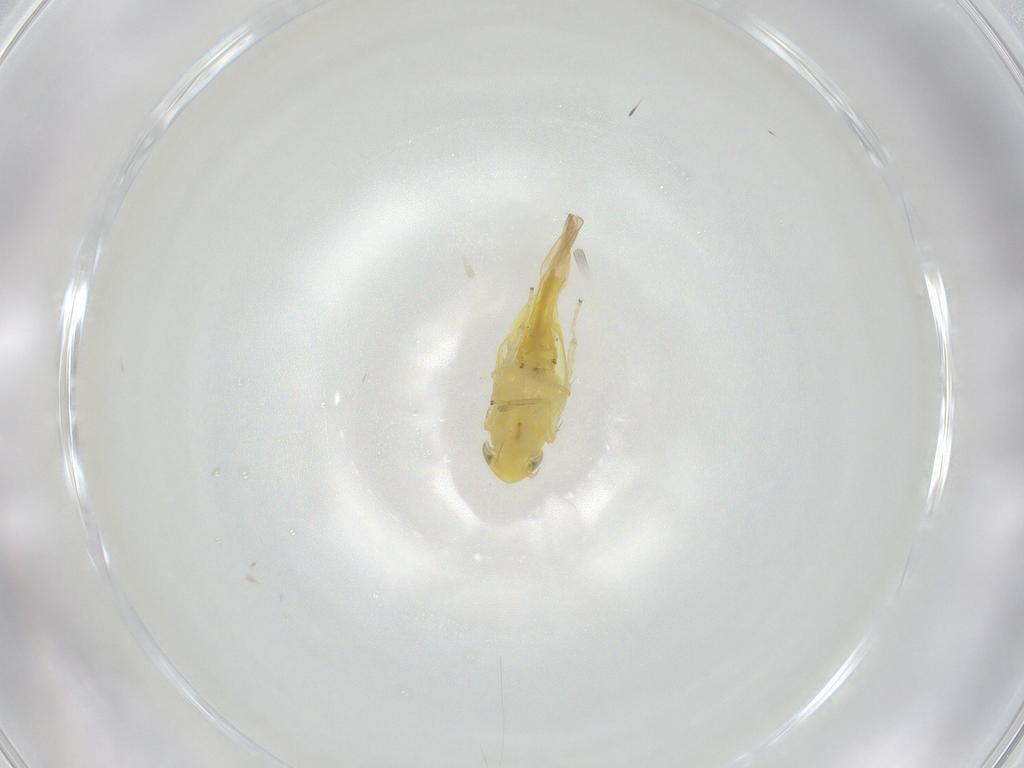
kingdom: Animalia
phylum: Arthropoda
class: Insecta
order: Hemiptera
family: Cicadellidae
